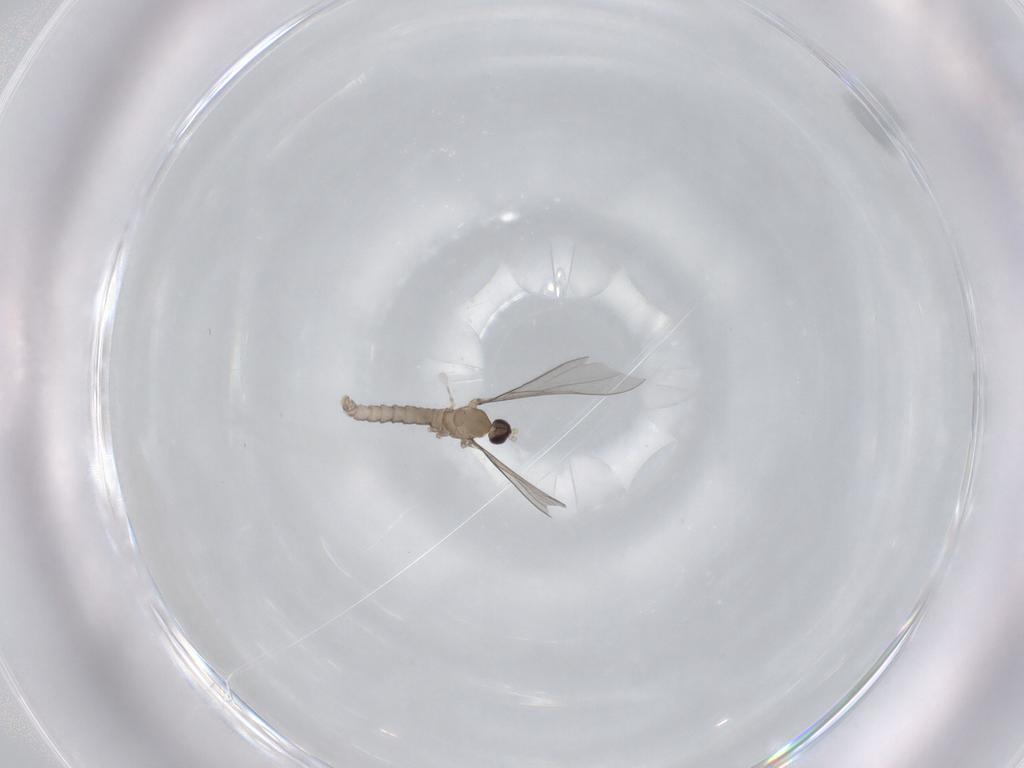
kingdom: Animalia
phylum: Arthropoda
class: Insecta
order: Diptera
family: Cecidomyiidae
